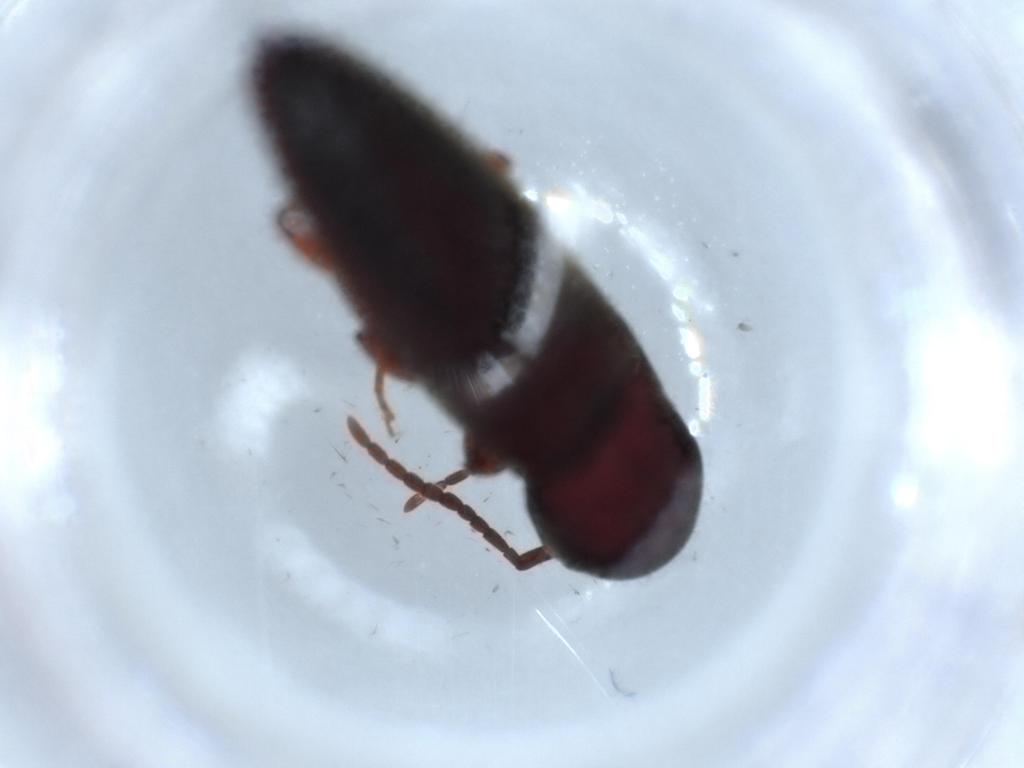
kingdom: Animalia
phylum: Arthropoda
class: Insecta
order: Coleoptera
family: Eucnemidae
